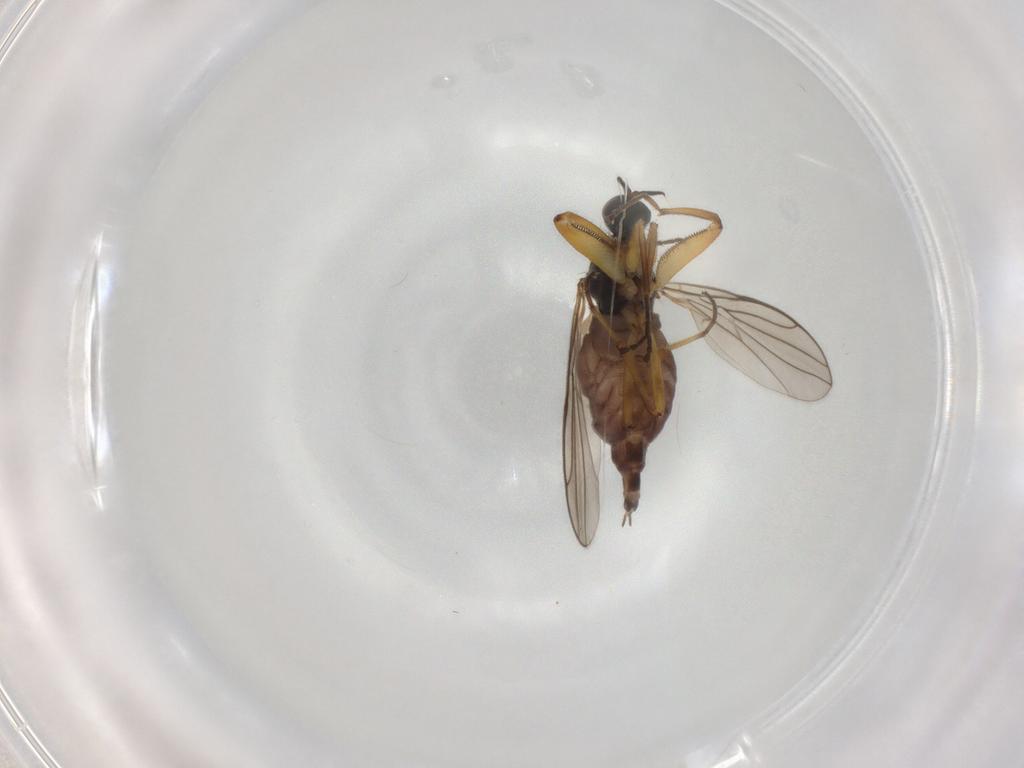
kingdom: Animalia
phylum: Arthropoda
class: Insecta
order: Diptera
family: Hybotidae
